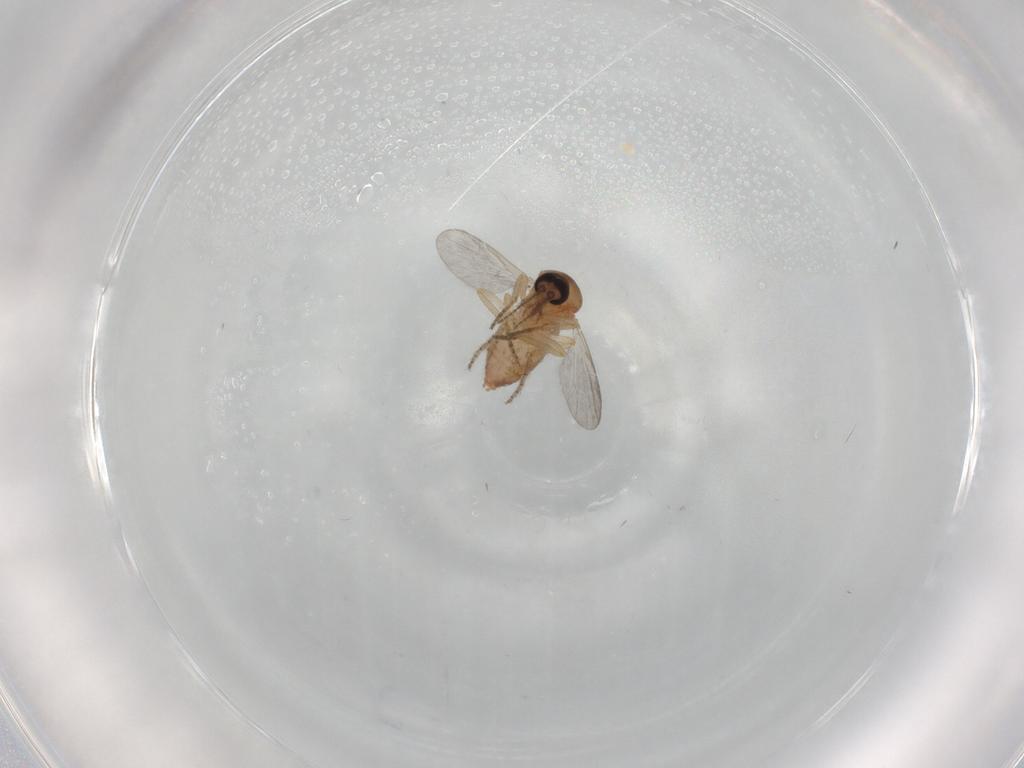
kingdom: Animalia
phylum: Arthropoda
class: Insecta
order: Diptera
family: Ceratopogonidae
